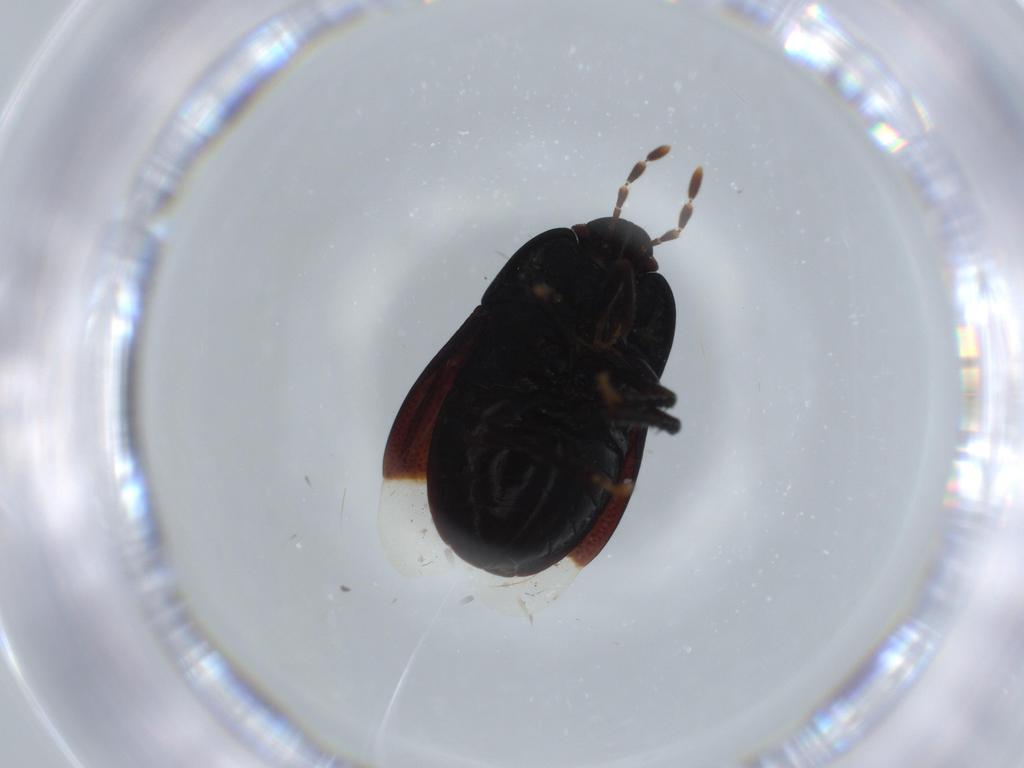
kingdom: Animalia
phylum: Arthropoda
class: Insecta
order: Hemiptera
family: Cydnidae
